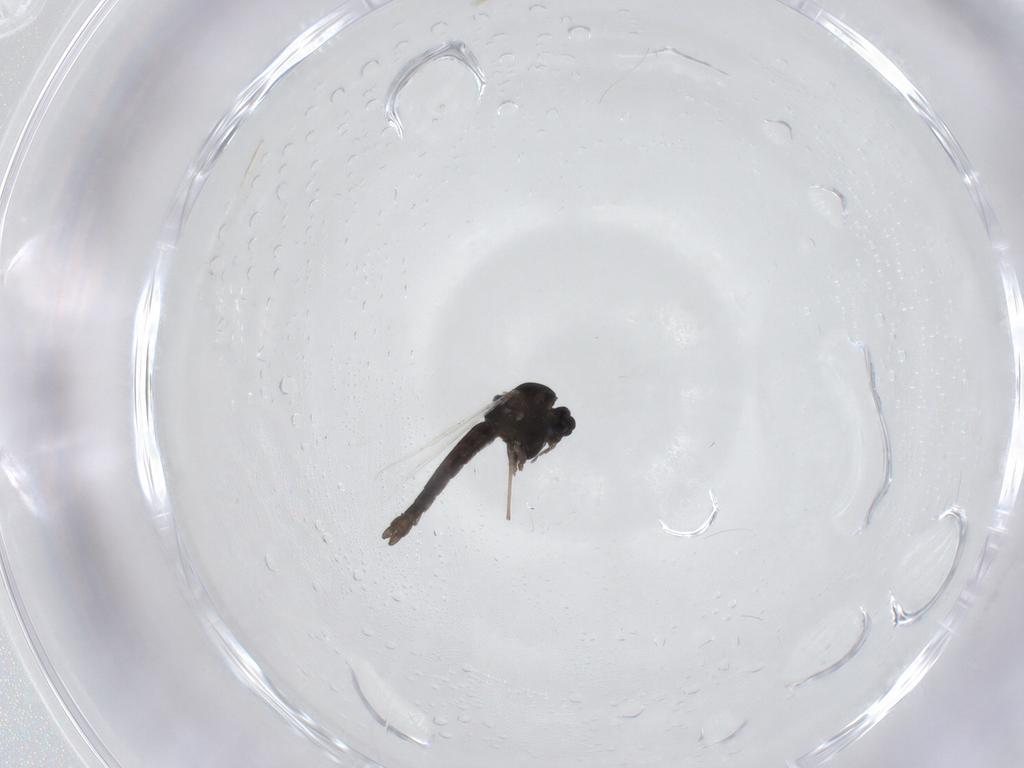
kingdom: Animalia
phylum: Arthropoda
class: Insecta
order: Diptera
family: Chironomidae
